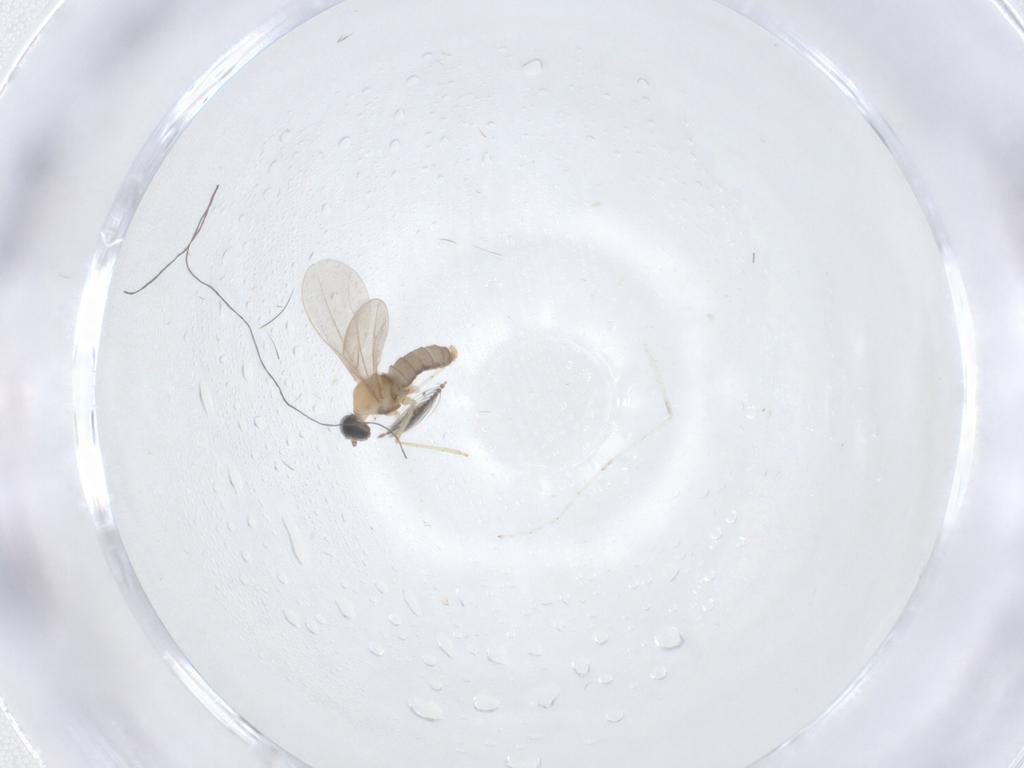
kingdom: Animalia
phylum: Arthropoda
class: Insecta
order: Diptera
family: Cecidomyiidae
